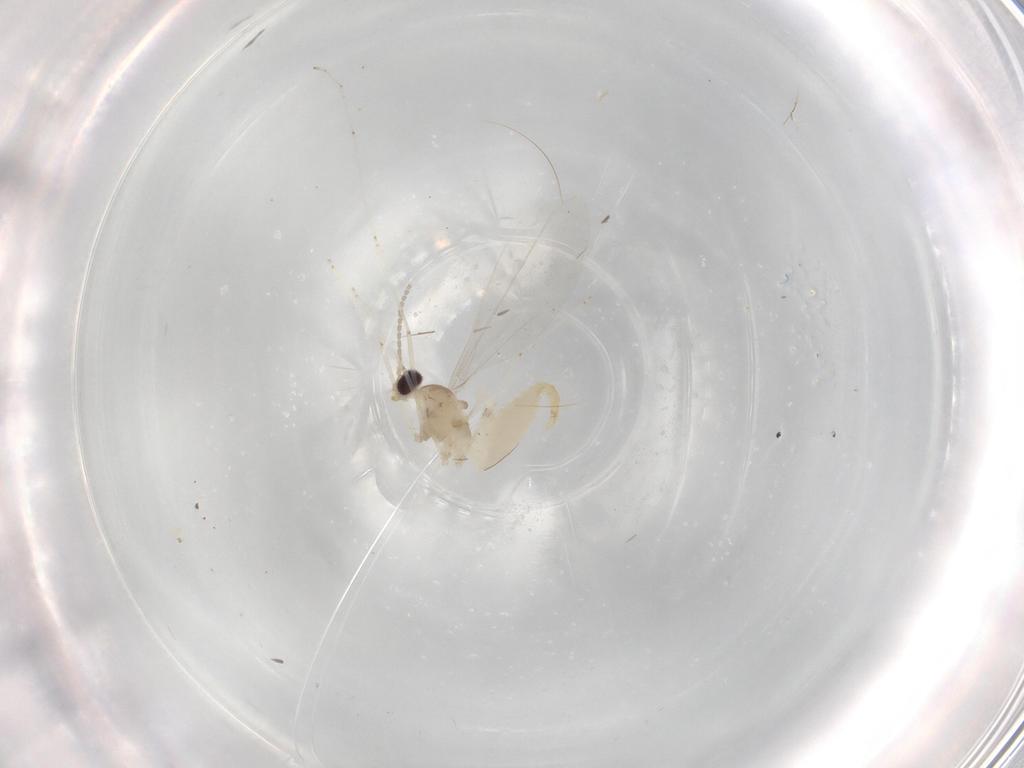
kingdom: Animalia
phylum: Arthropoda
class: Insecta
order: Diptera
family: Cecidomyiidae
